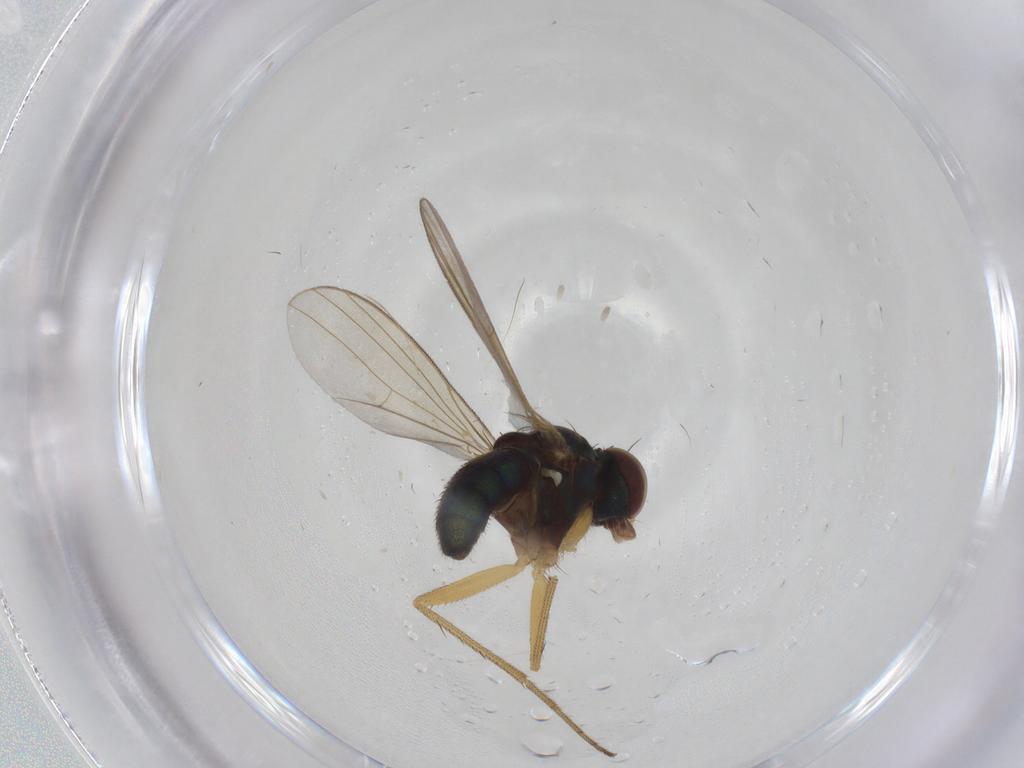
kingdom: Animalia
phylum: Arthropoda
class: Insecta
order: Diptera
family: Dolichopodidae
